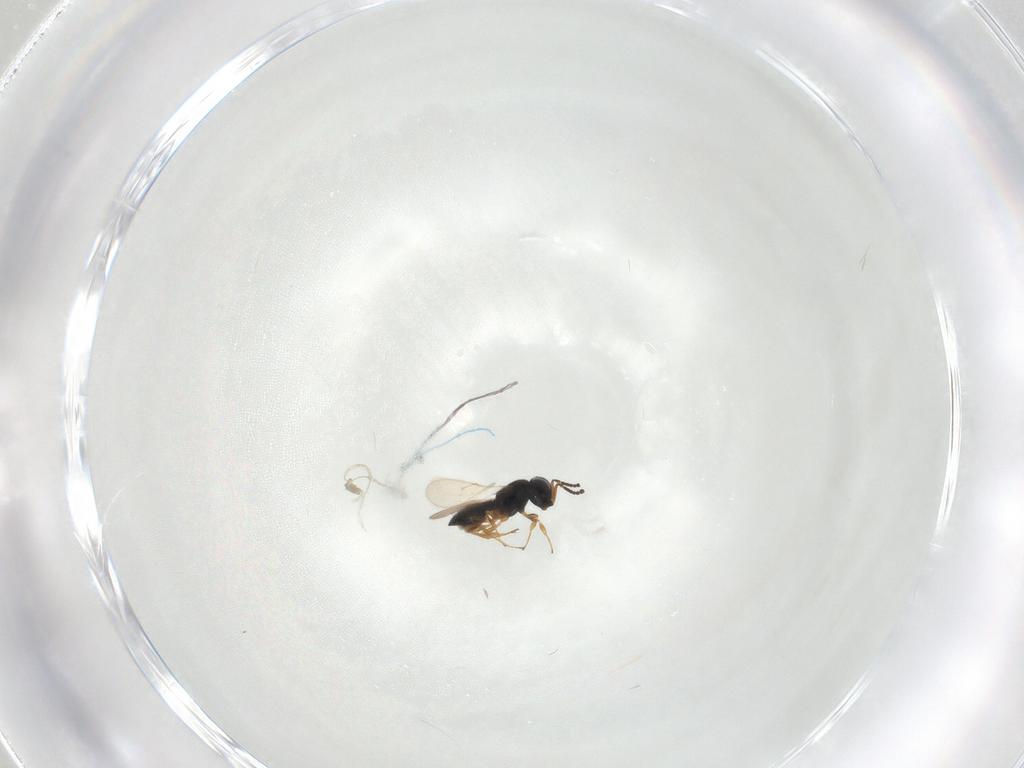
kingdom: Animalia
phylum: Arthropoda
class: Insecta
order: Hymenoptera
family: Scelionidae
